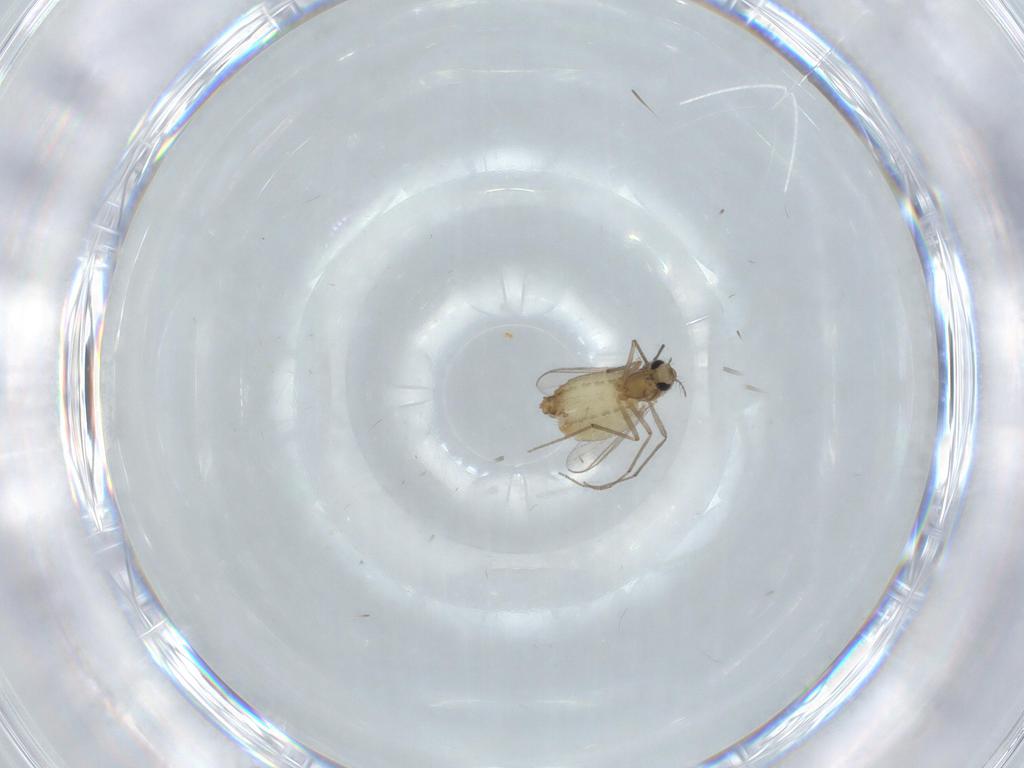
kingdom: Animalia
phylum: Arthropoda
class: Insecta
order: Diptera
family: Chironomidae
